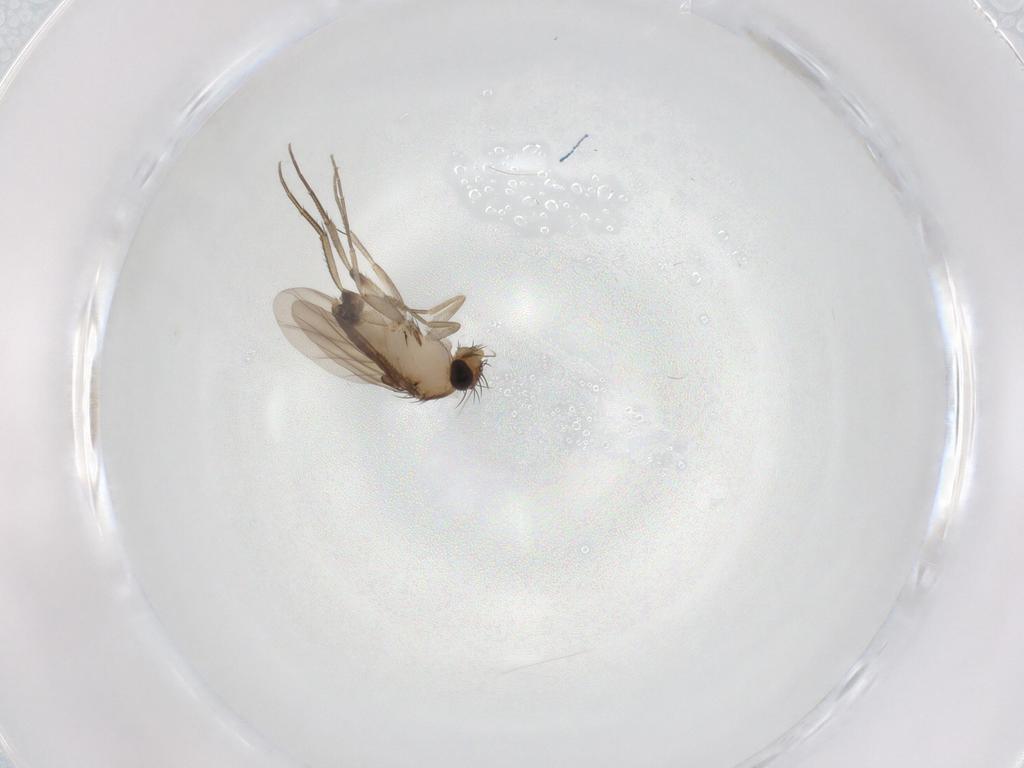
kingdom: Animalia
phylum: Arthropoda
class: Insecta
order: Diptera
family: Phoridae
